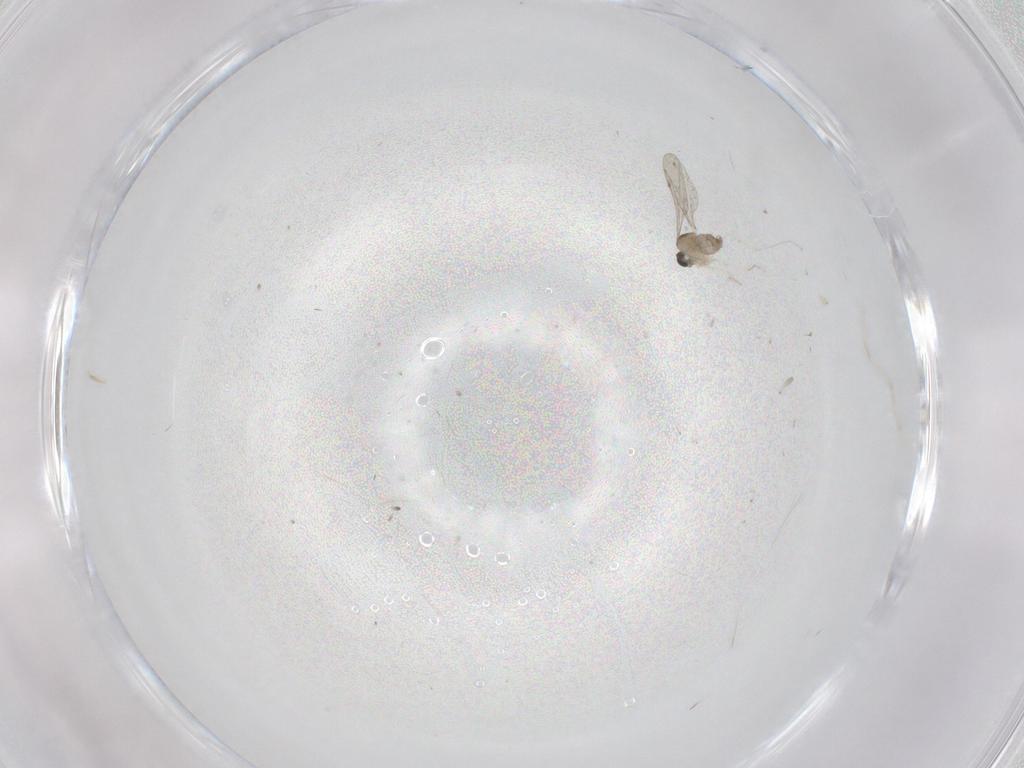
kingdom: Animalia
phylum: Arthropoda
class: Insecta
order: Diptera
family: Cecidomyiidae
